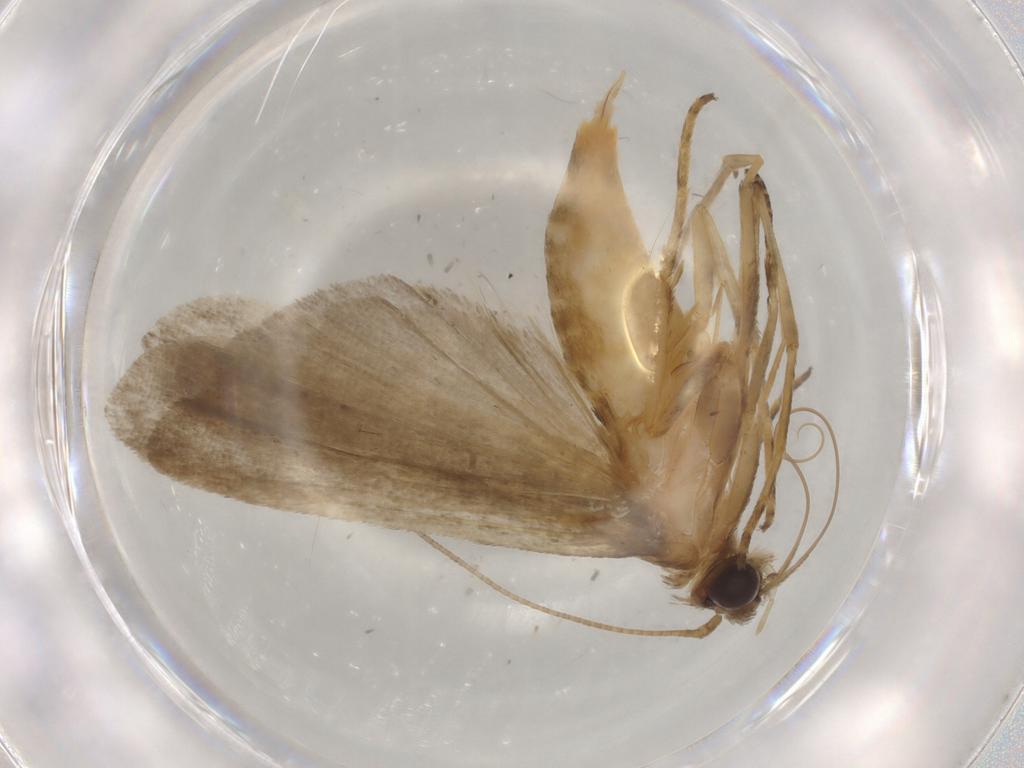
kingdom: Animalia
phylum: Arthropoda
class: Insecta
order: Lepidoptera
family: Noctuidae
